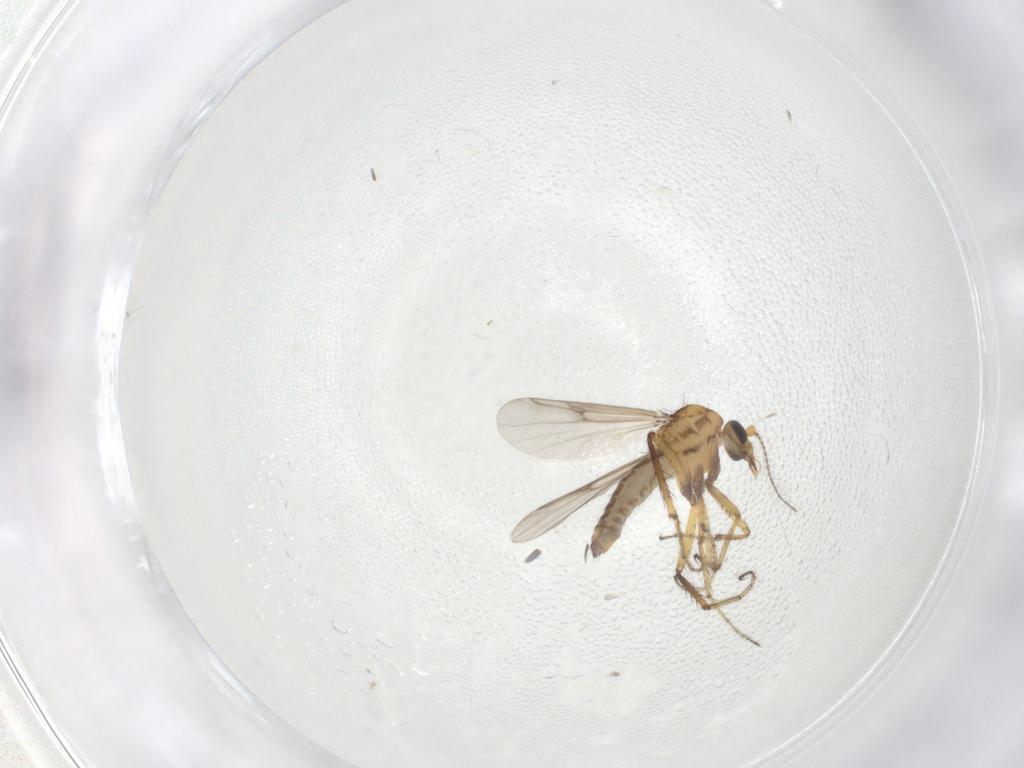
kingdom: Animalia
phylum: Arthropoda
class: Insecta
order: Diptera
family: Ceratopogonidae
